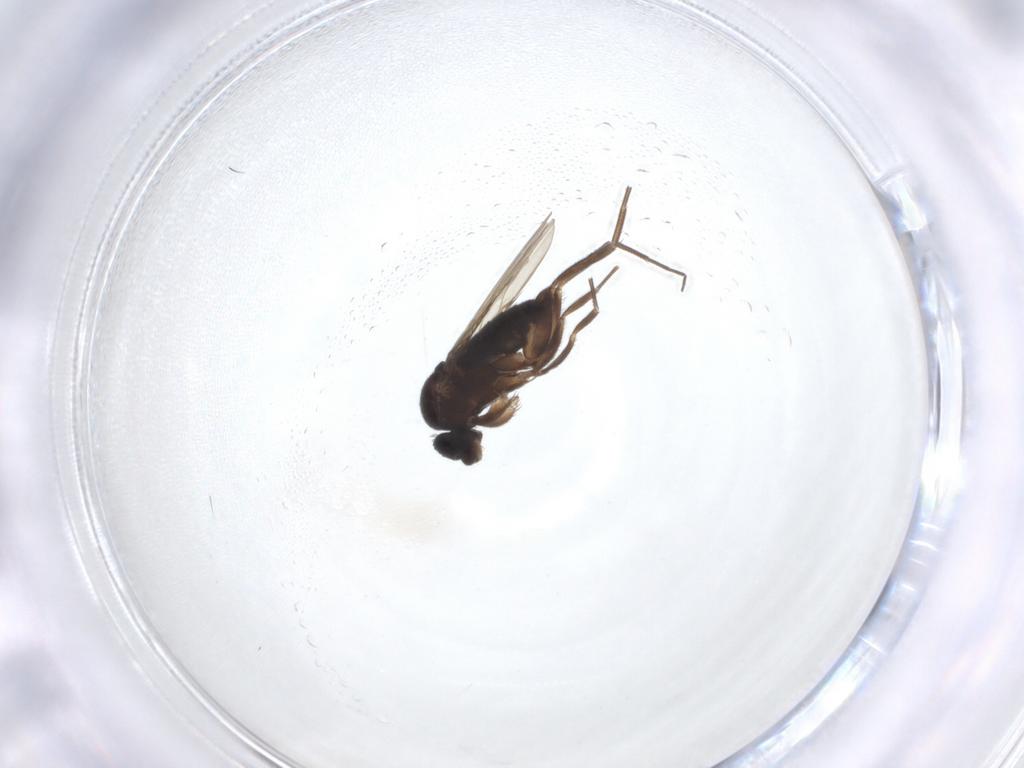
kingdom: Animalia
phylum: Arthropoda
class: Insecta
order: Diptera
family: Phoridae
